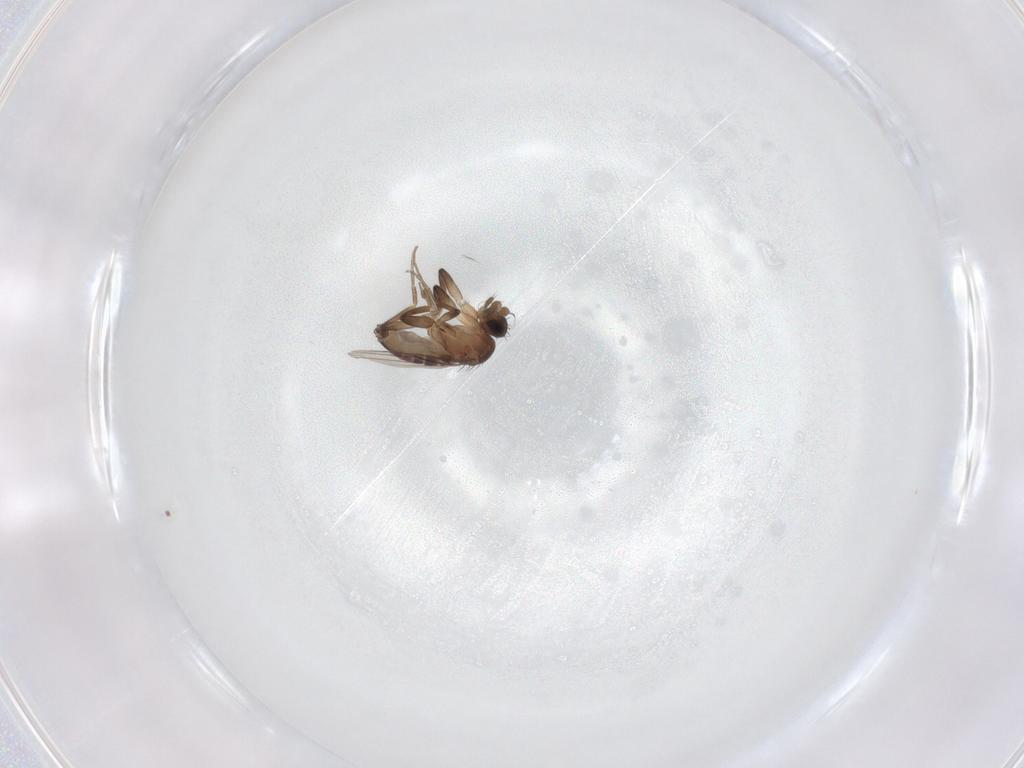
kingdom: Animalia
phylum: Arthropoda
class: Insecta
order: Diptera
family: Phoridae
